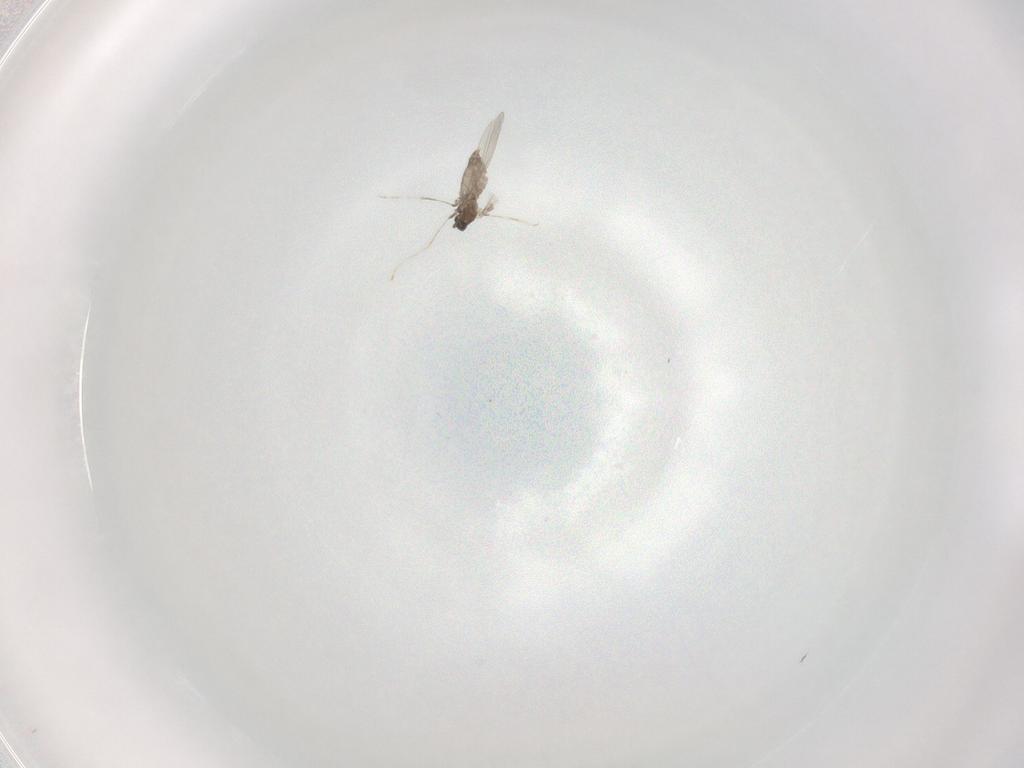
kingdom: Animalia
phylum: Arthropoda
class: Insecta
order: Diptera
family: Cecidomyiidae
